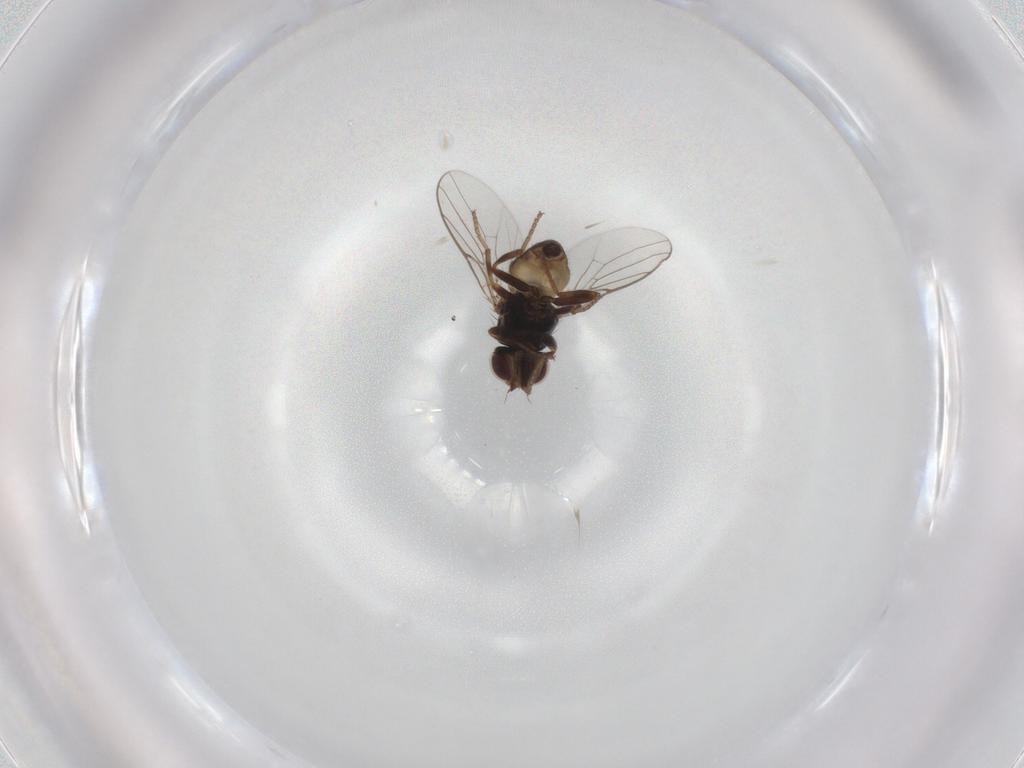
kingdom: Animalia
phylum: Arthropoda
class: Insecta
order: Diptera
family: Chloropidae
